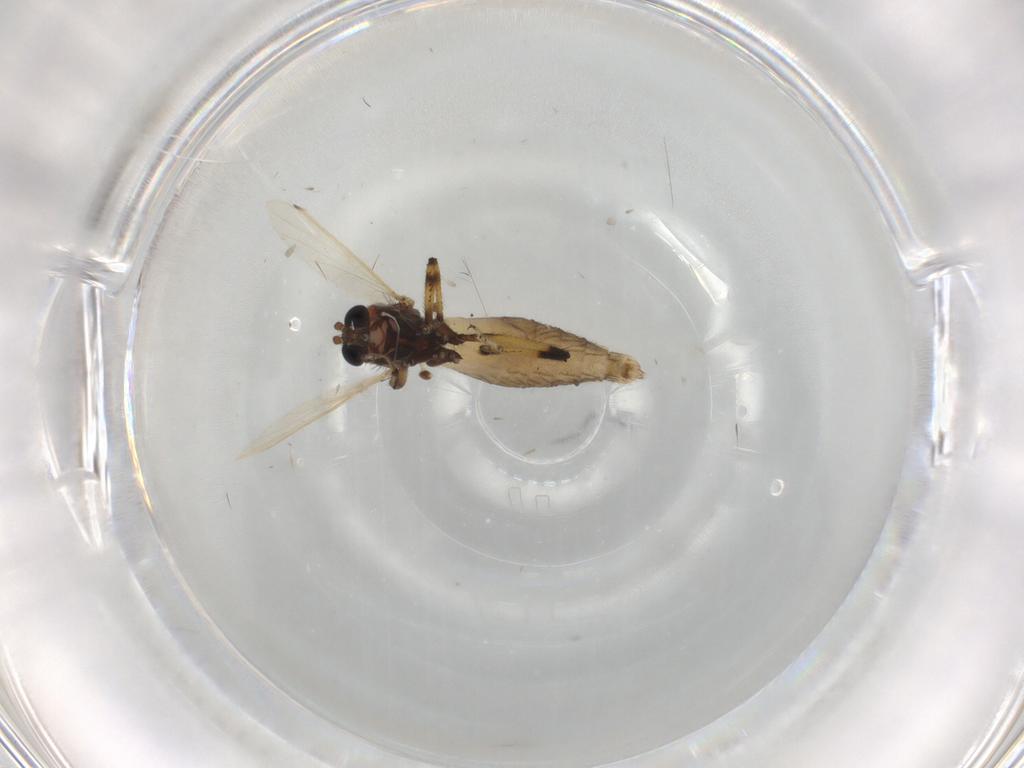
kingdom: Animalia
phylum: Arthropoda
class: Insecta
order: Diptera
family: Ceratopogonidae
